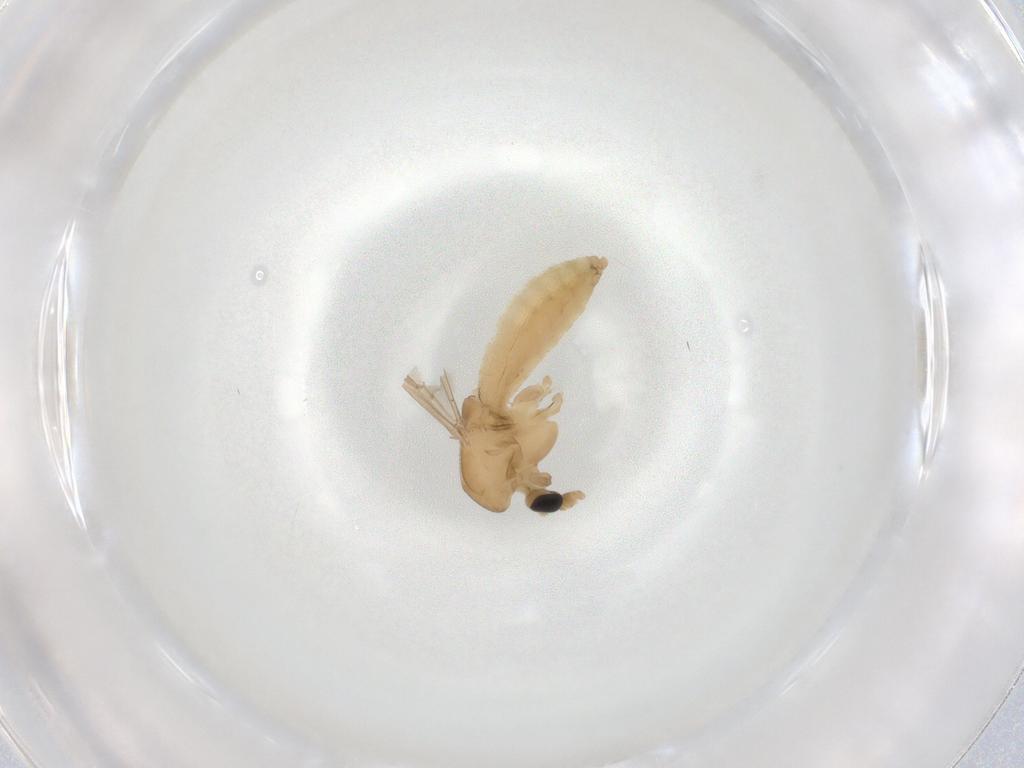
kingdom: Animalia
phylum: Arthropoda
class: Insecta
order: Diptera
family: Chironomidae
